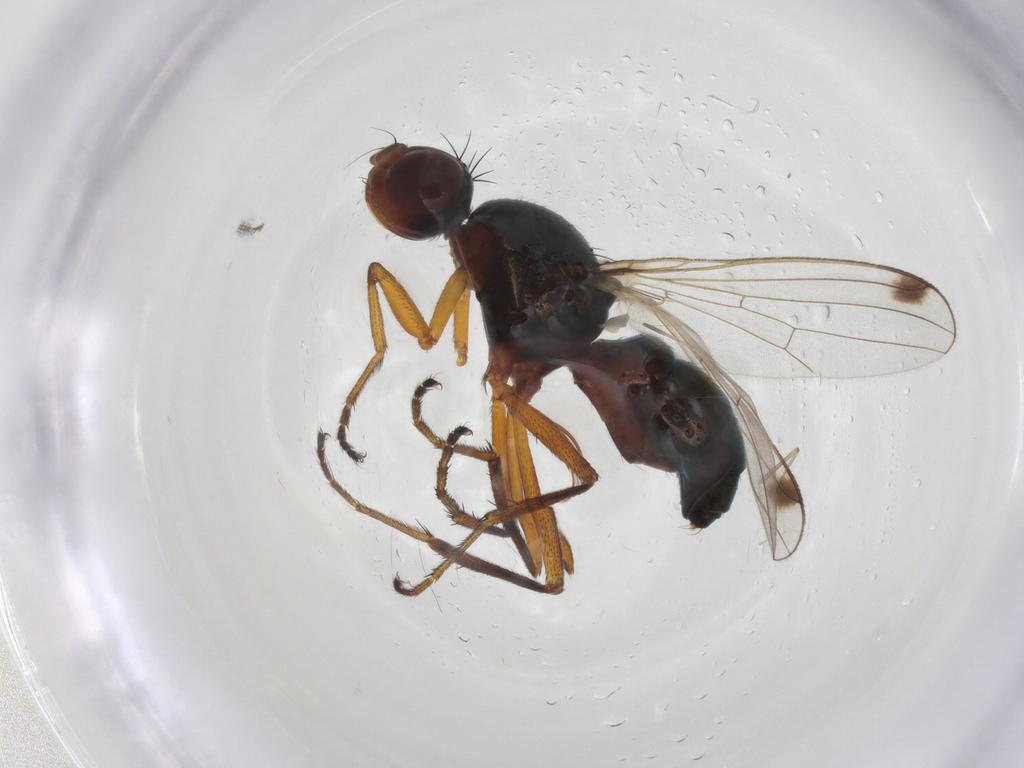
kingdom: Animalia
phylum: Arthropoda
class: Insecta
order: Diptera
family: Sepsidae
